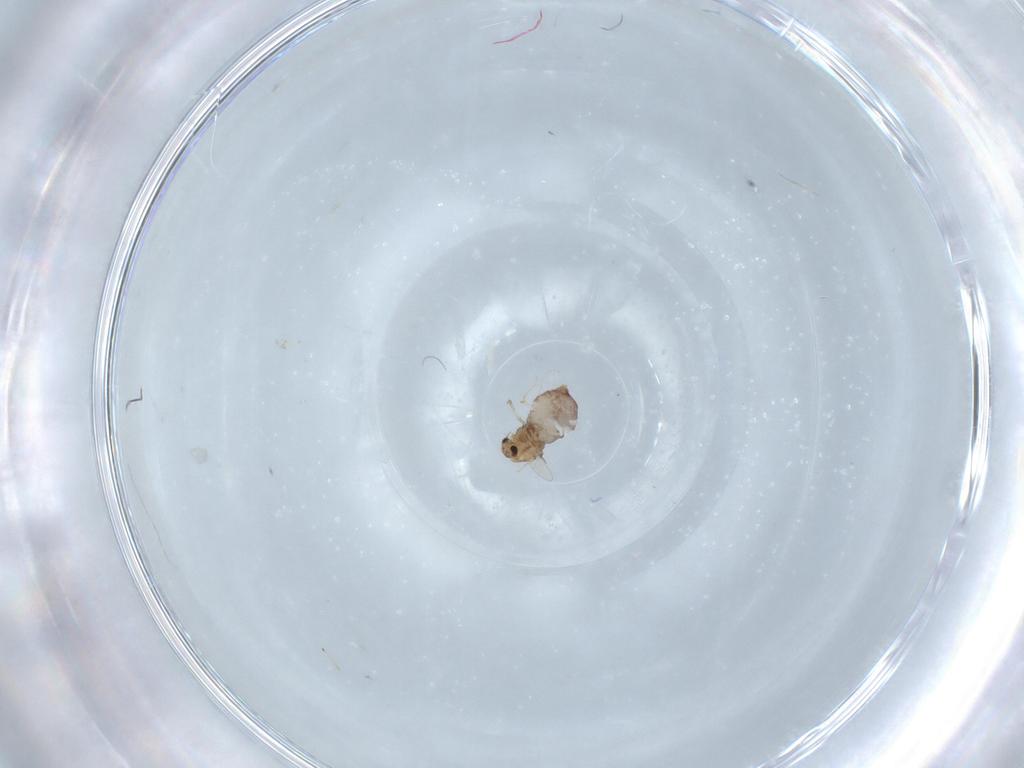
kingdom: Animalia
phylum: Arthropoda
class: Insecta
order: Diptera
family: Chironomidae
